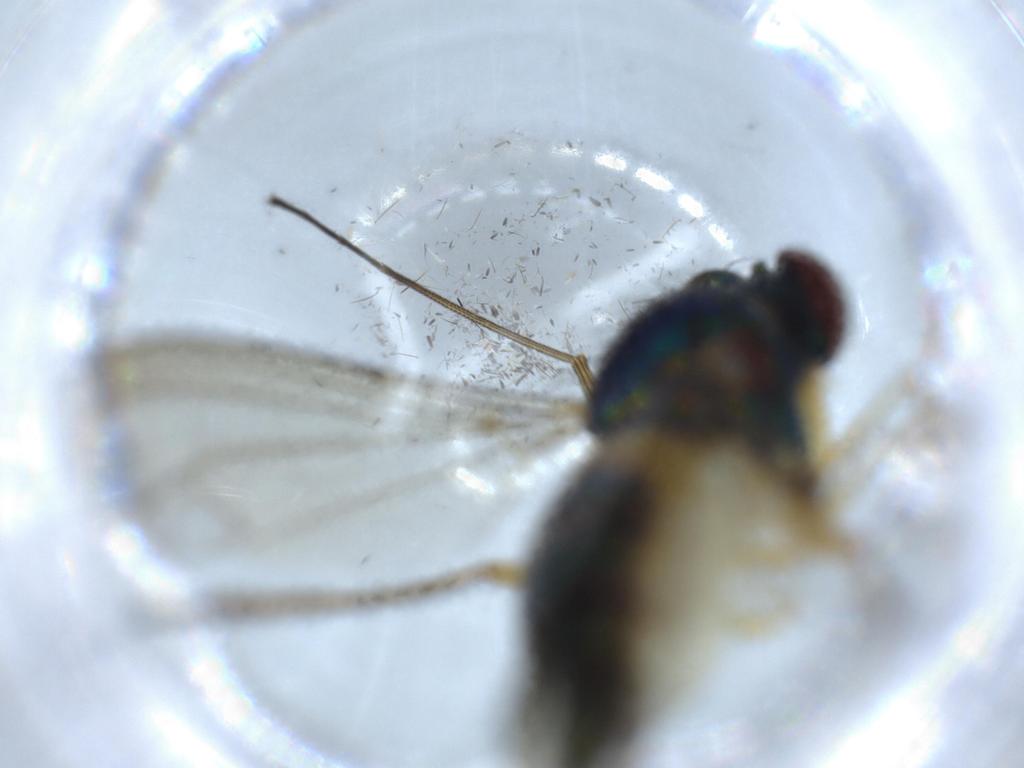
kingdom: Animalia
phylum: Arthropoda
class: Insecta
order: Diptera
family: Dolichopodidae
